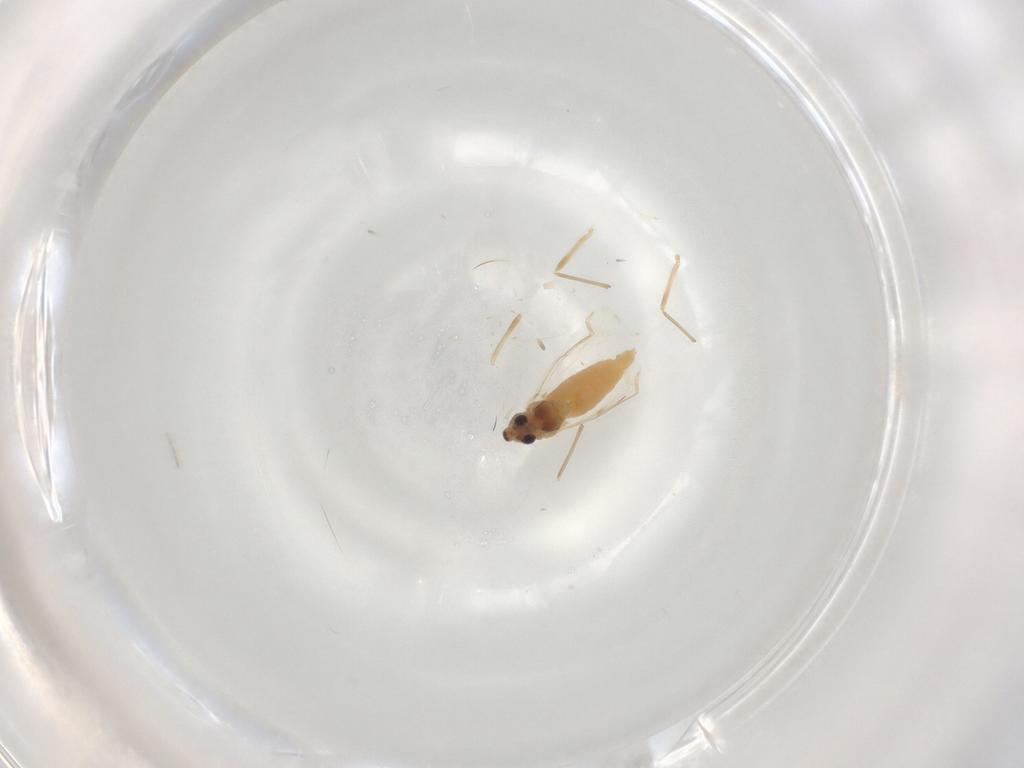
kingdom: Animalia
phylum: Arthropoda
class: Insecta
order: Diptera
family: Chironomidae
